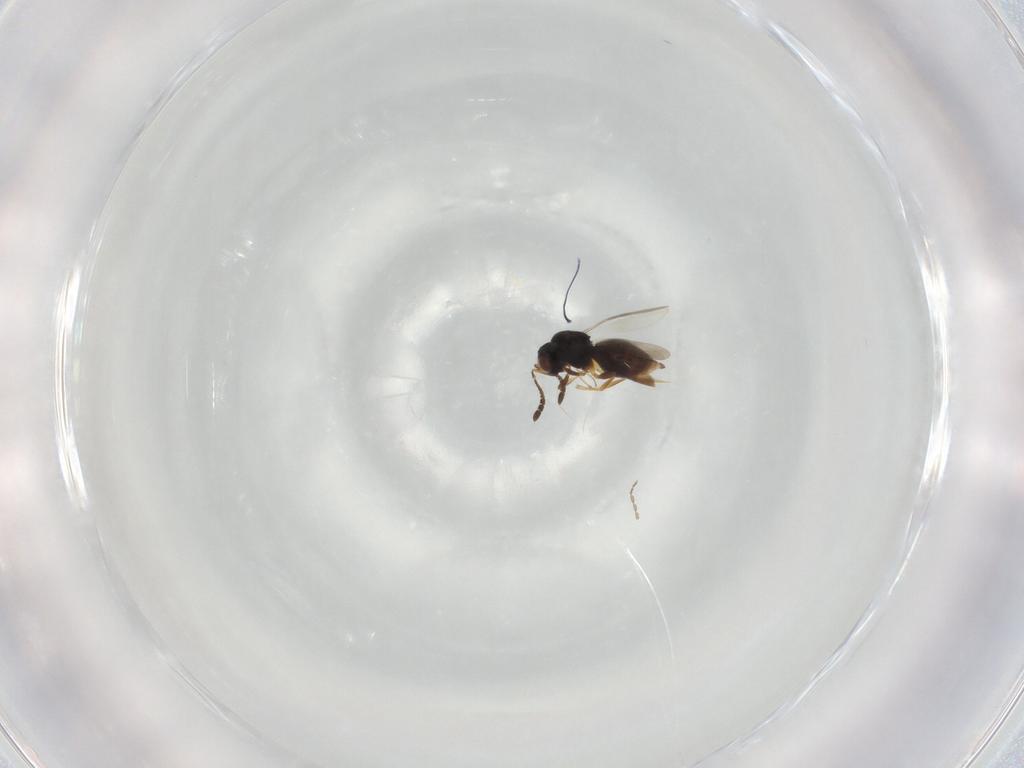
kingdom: Animalia
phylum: Arthropoda
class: Insecta
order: Hymenoptera
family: Ceraphronidae
